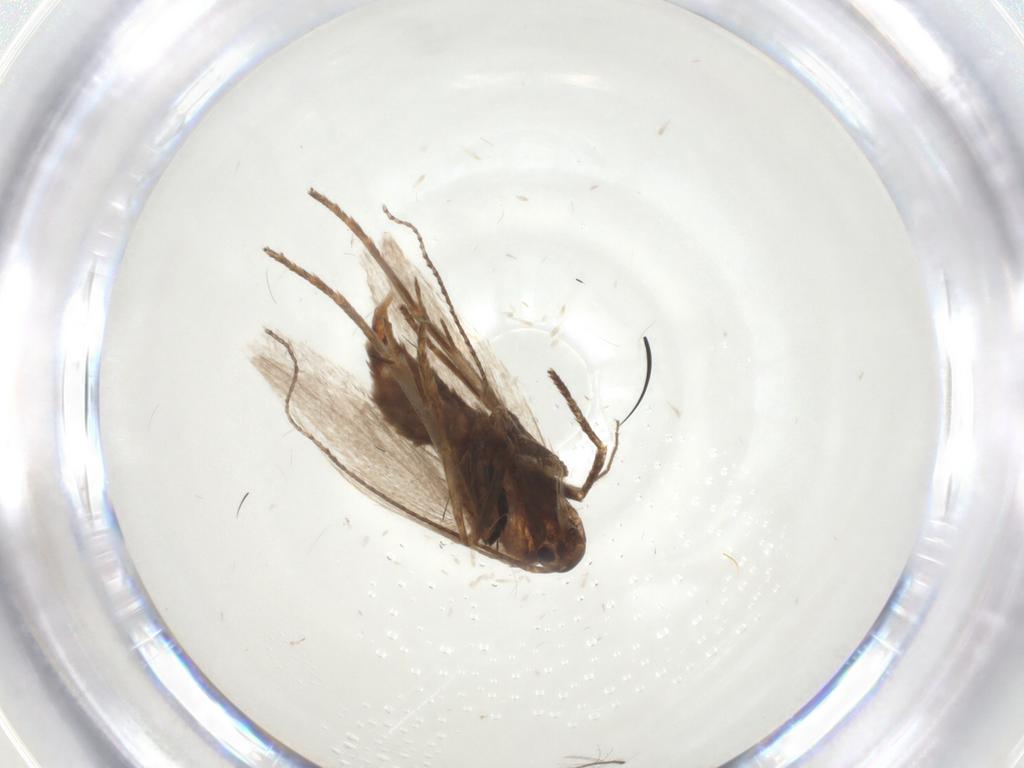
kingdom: Animalia
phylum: Arthropoda
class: Insecta
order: Lepidoptera
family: Erebidae
